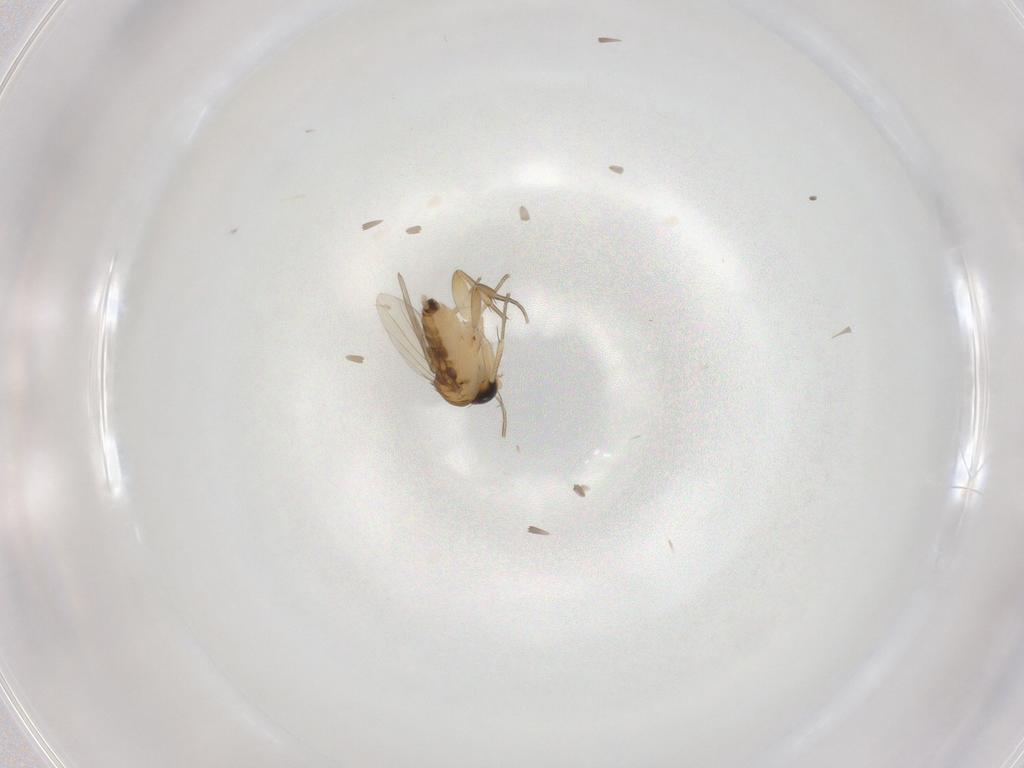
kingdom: Animalia
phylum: Arthropoda
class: Insecta
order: Diptera
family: Phoridae
